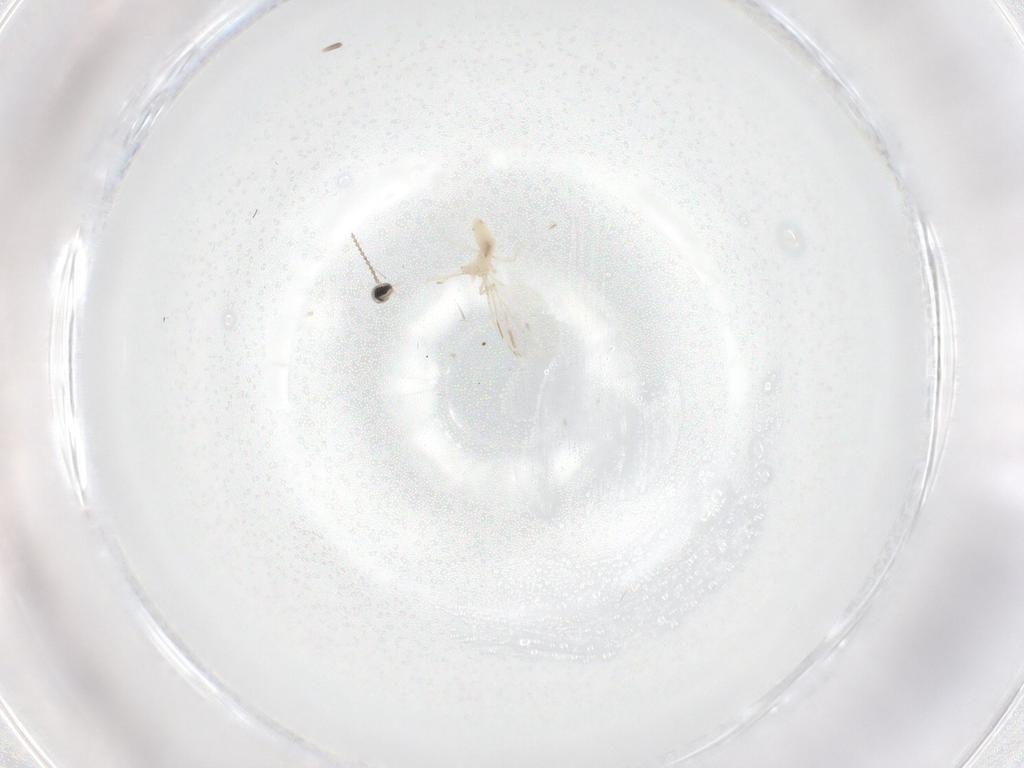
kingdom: Animalia
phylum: Arthropoda
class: Insecta
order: Diptera
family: Cecidomyiidae
